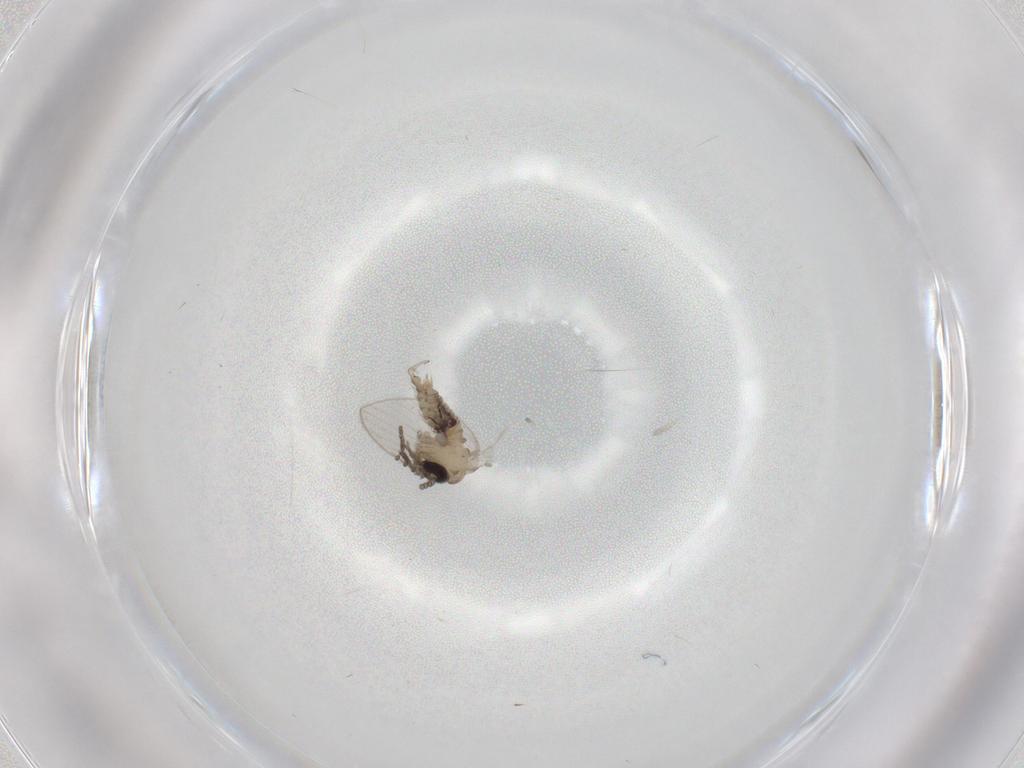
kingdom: Animalia
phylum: Arthropoda
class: Insecta
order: Diptera
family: Psychodidae
